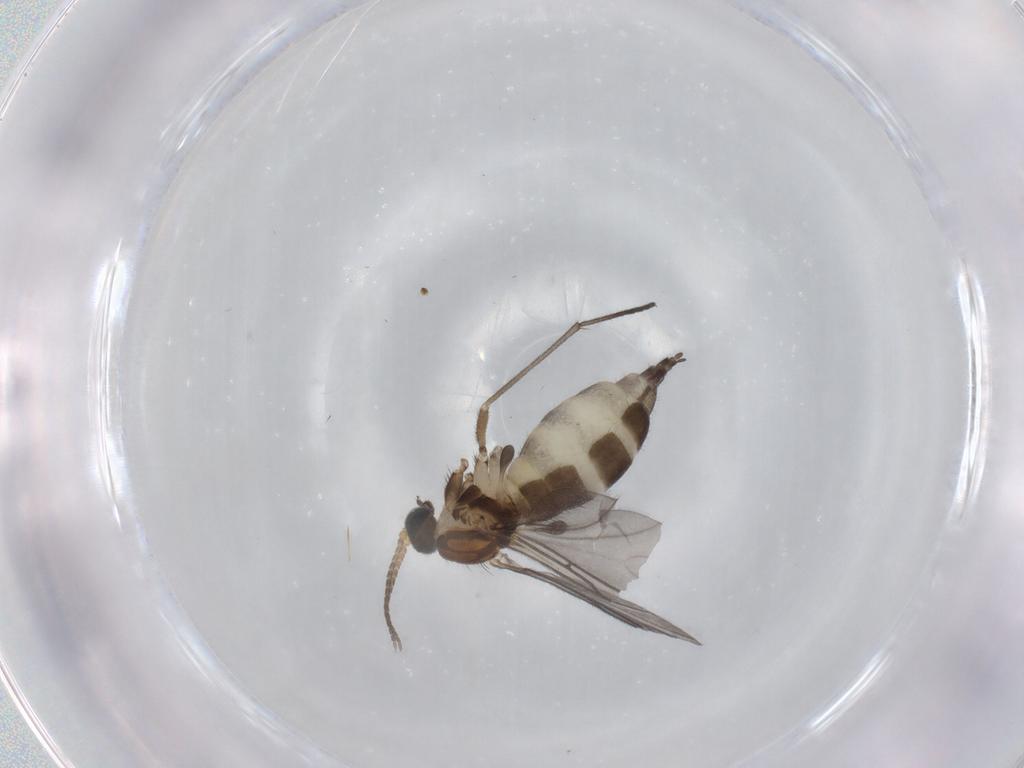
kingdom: Animalia
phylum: Arthropoda
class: Insecta
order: Diptera
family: Sciaridae
